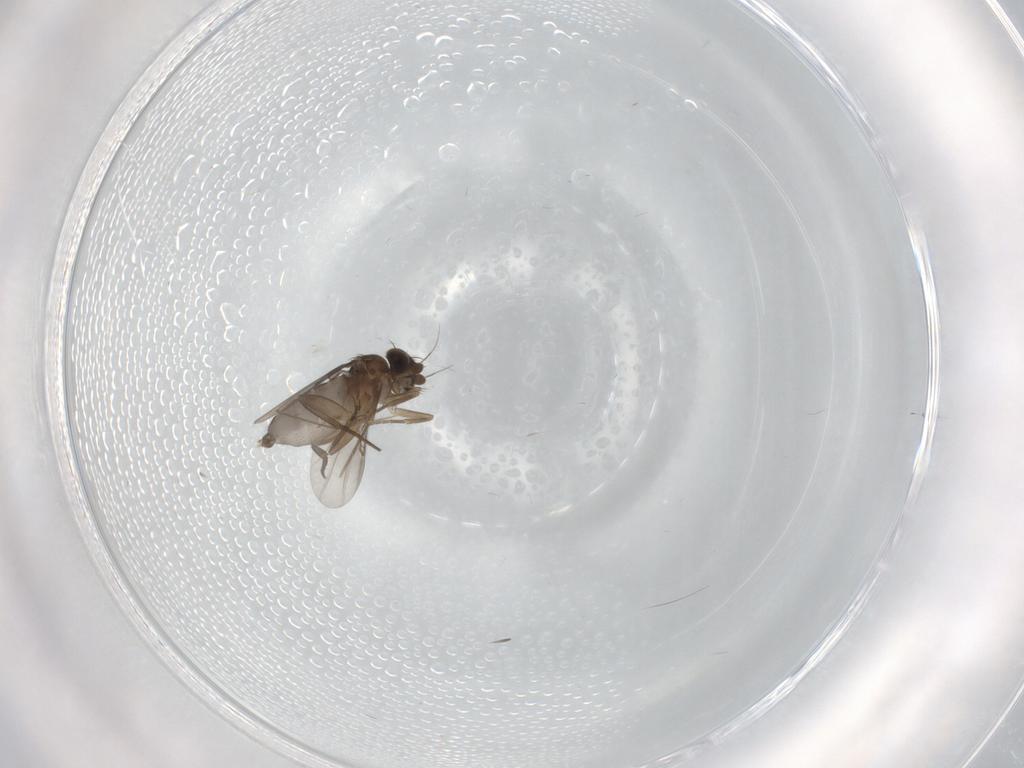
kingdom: Animalia
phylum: Arthropoda
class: Insecta
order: Diptera
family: Phoridae
